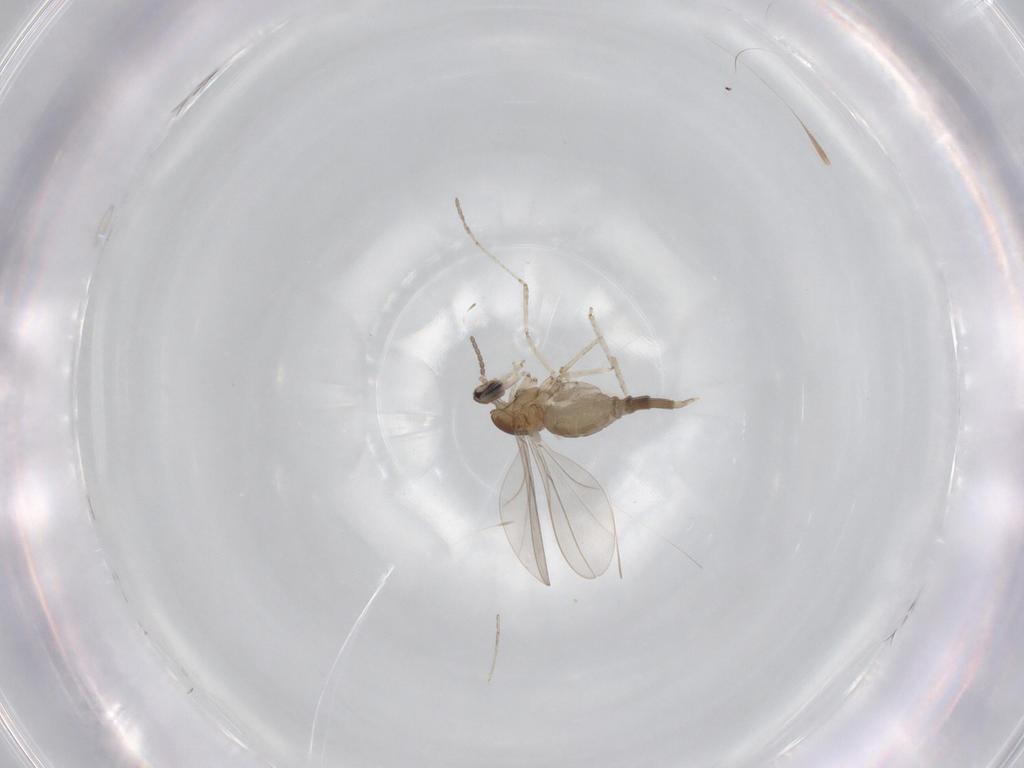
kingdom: Animalia
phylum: Arthropoda
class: Insecta
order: Diptera
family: Cecidomyiidae
